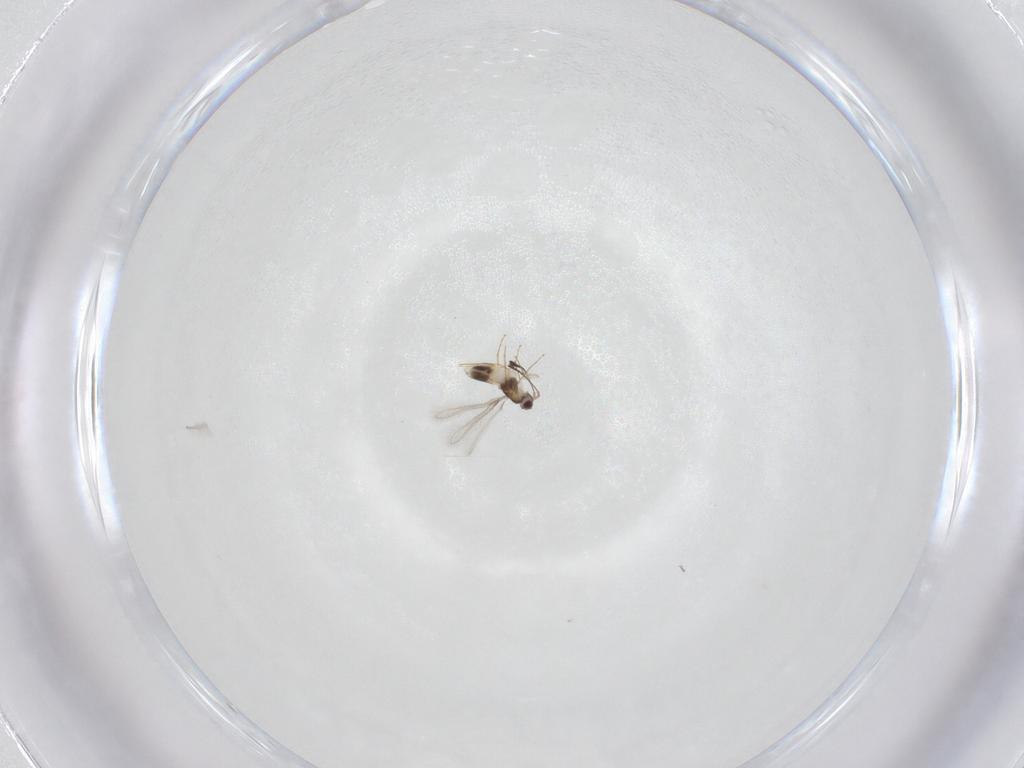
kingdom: Animalia
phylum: Arthropoda
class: Insecta
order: Hymenoptera
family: Mymaridae
